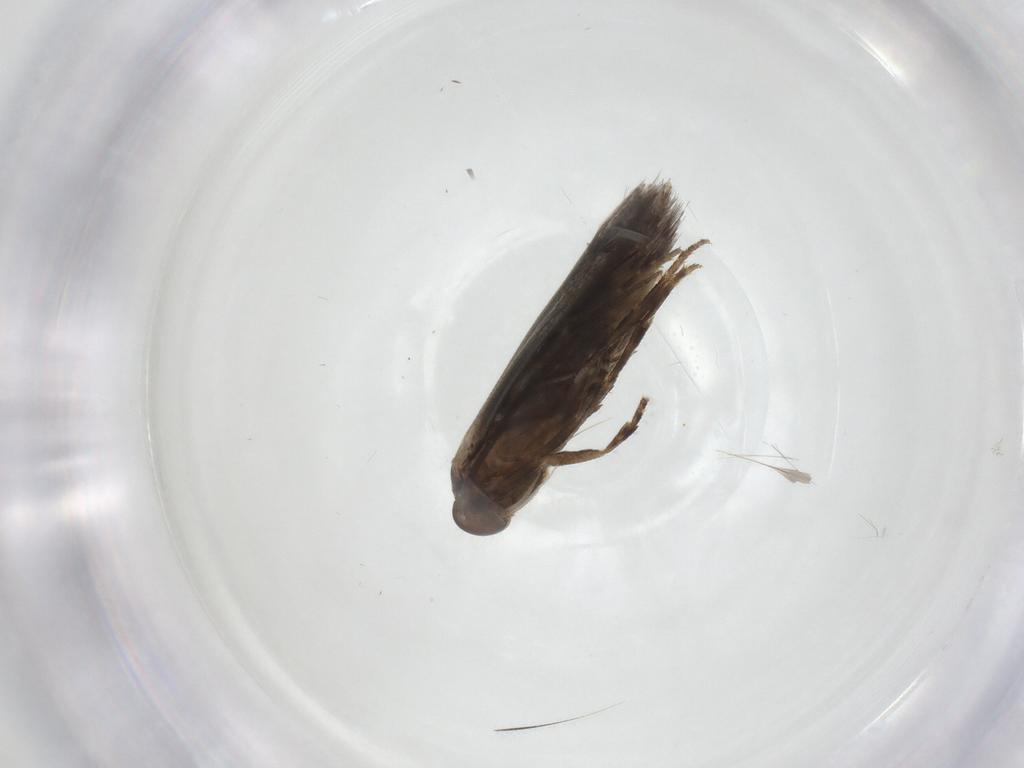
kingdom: Animalia
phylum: Arthropoda
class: Insecta
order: Lepidoptera
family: Elachistidae
